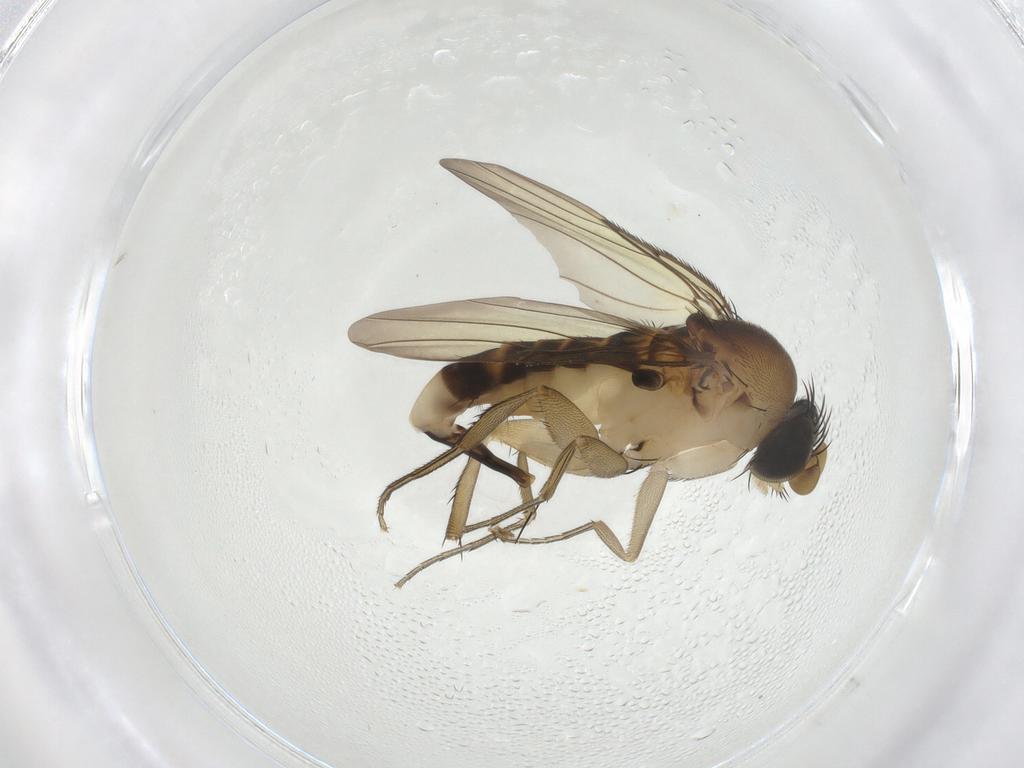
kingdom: Animalia
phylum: Arthropoda
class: Insecta
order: Diptera
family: Phoridae
